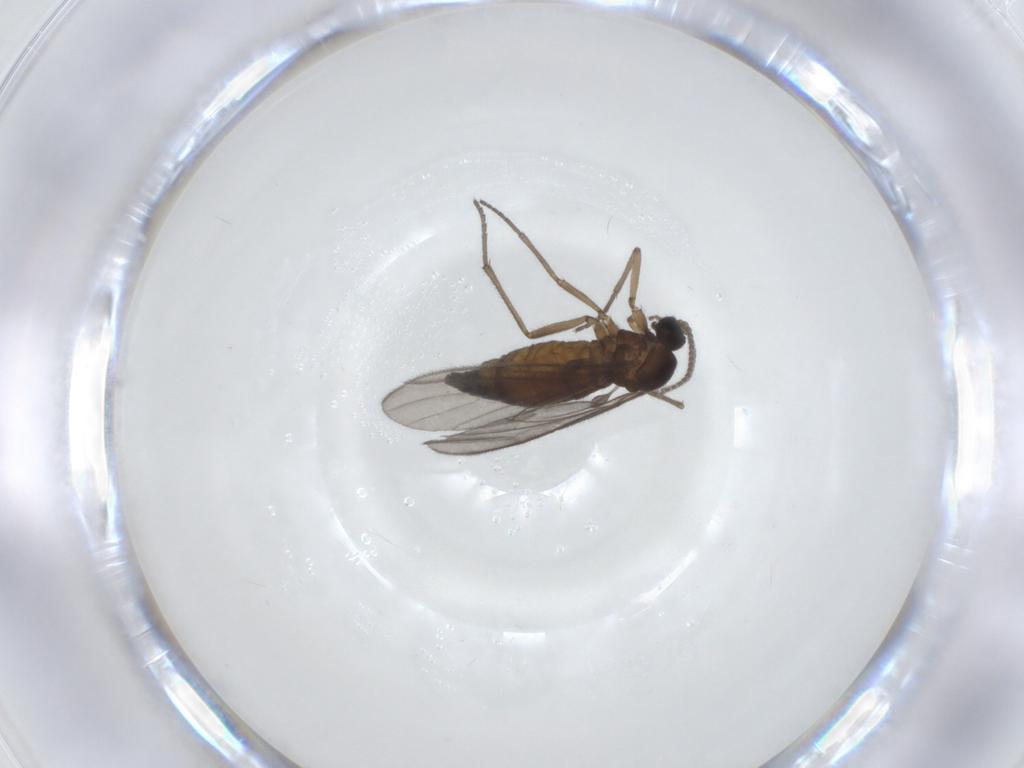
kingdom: Animalia
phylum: Arthropoda
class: Insecta
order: Diptera
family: Sciaridae
